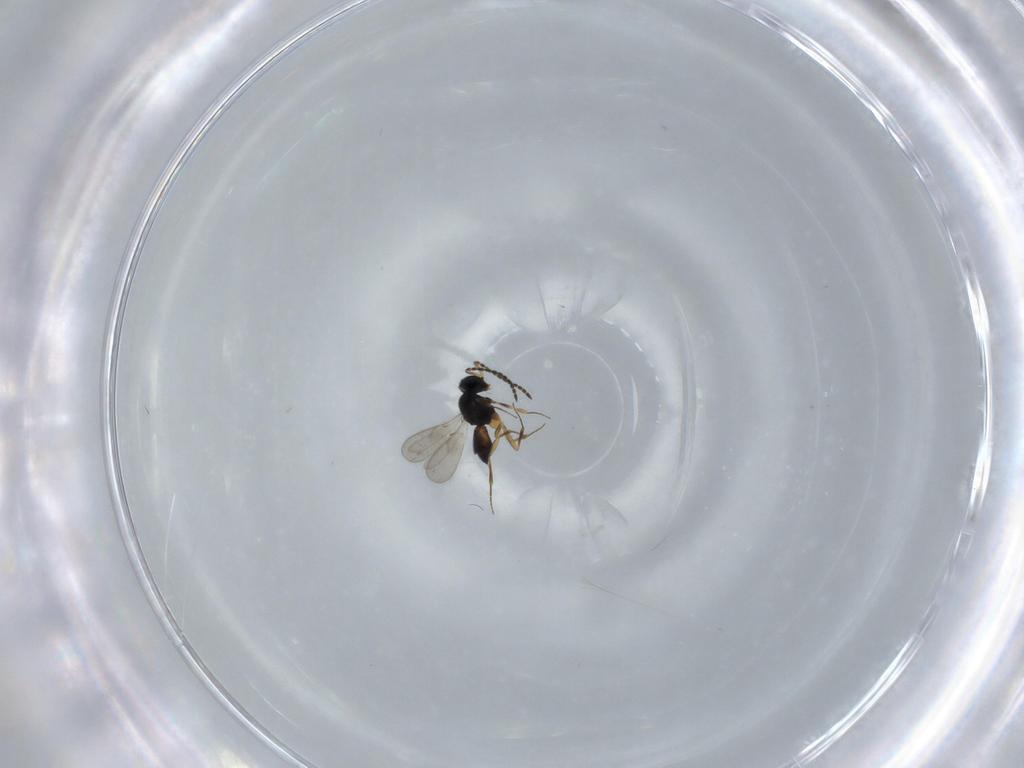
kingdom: Animalia
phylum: Arthropoda
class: Insecta
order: Hymenoptera
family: Scelionidae
